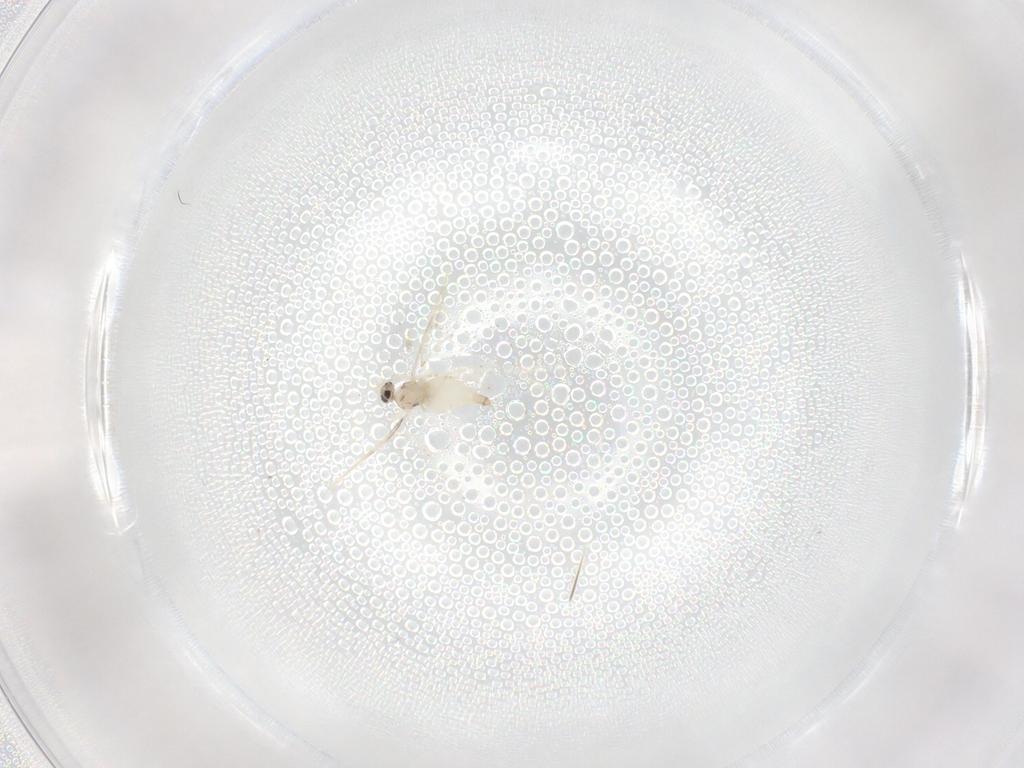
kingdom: Animalia
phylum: Arthropoda
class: Insecta
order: Diptera
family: Cecidomyiidae
